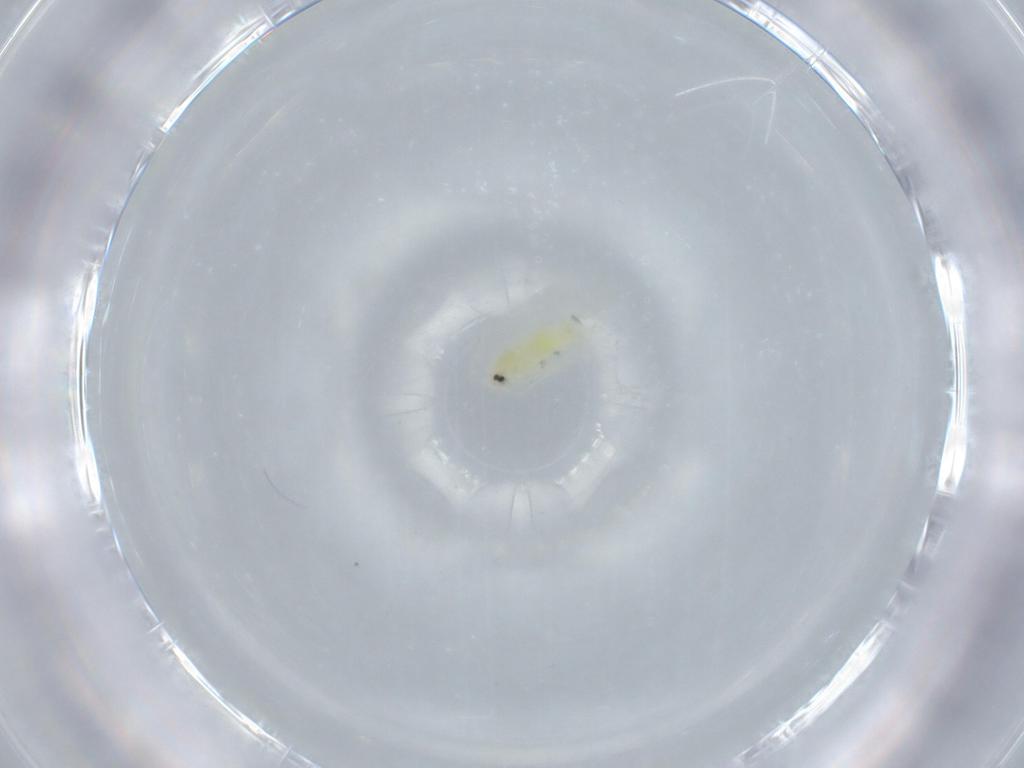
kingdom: Animalia
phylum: Arthropoda
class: Insecta
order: Hemiptera
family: Aleyrodidae
